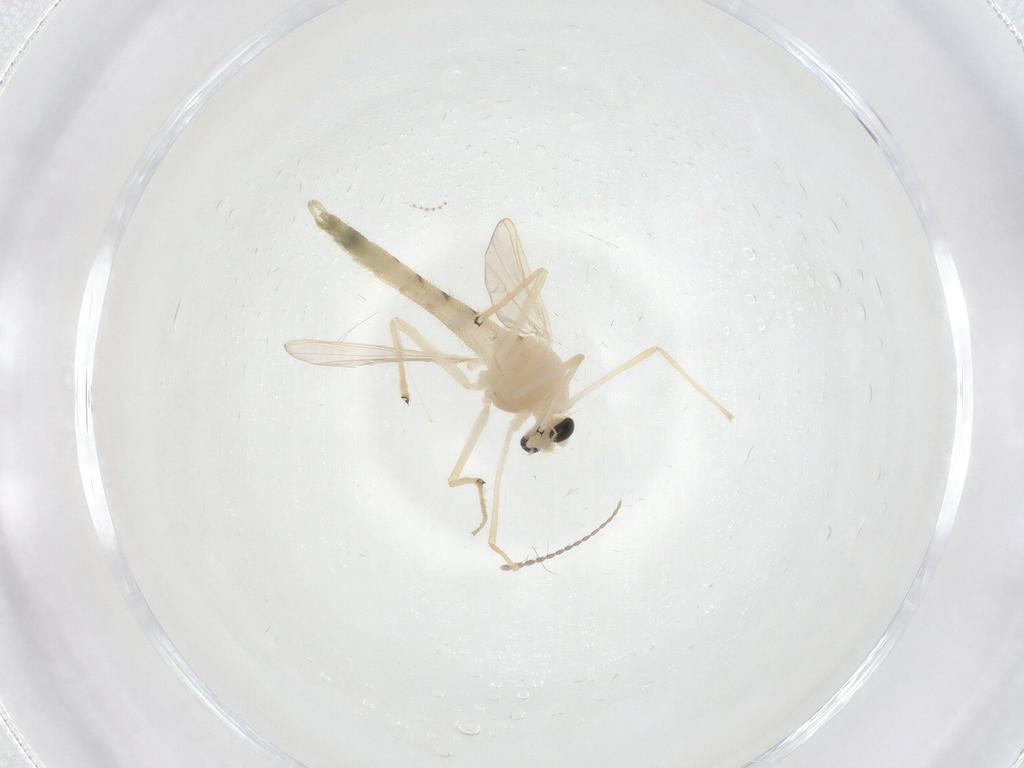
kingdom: Animalia
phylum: Arthropoda
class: Insecta
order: Diptera
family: Chironomidae
